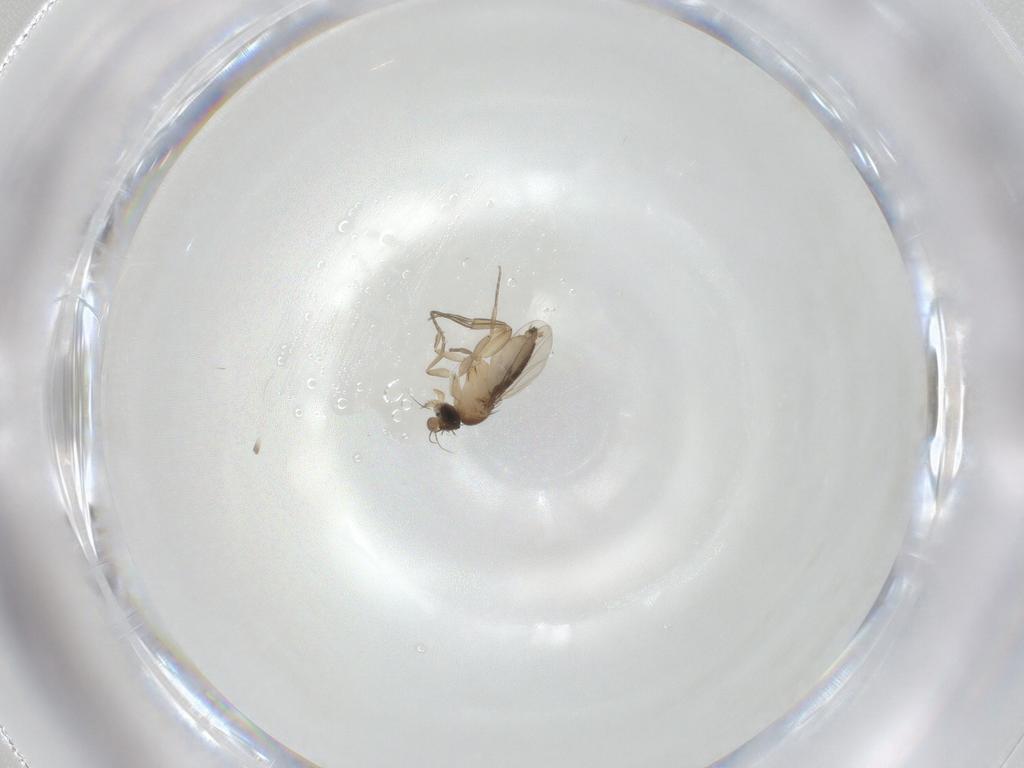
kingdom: Animalia
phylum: Arthropoda
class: Insecta
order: Diptera
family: Phoridae
